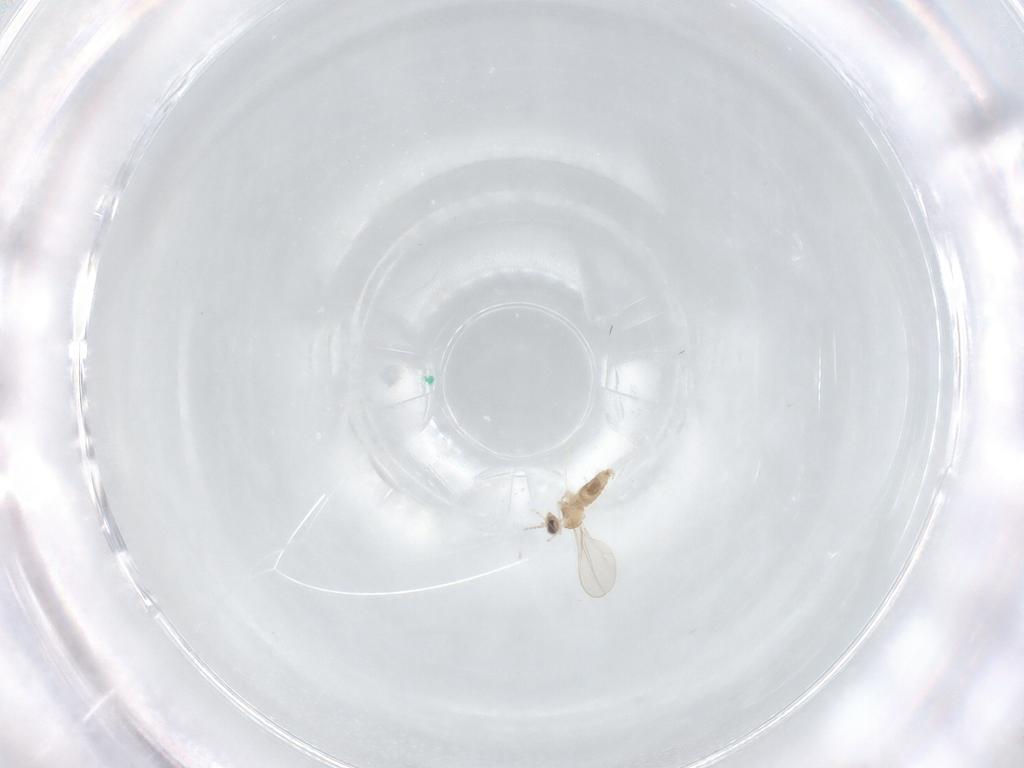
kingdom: Animalia
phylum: Arthropoda
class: Insecta
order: Diptera
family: Cecidomyiidae
